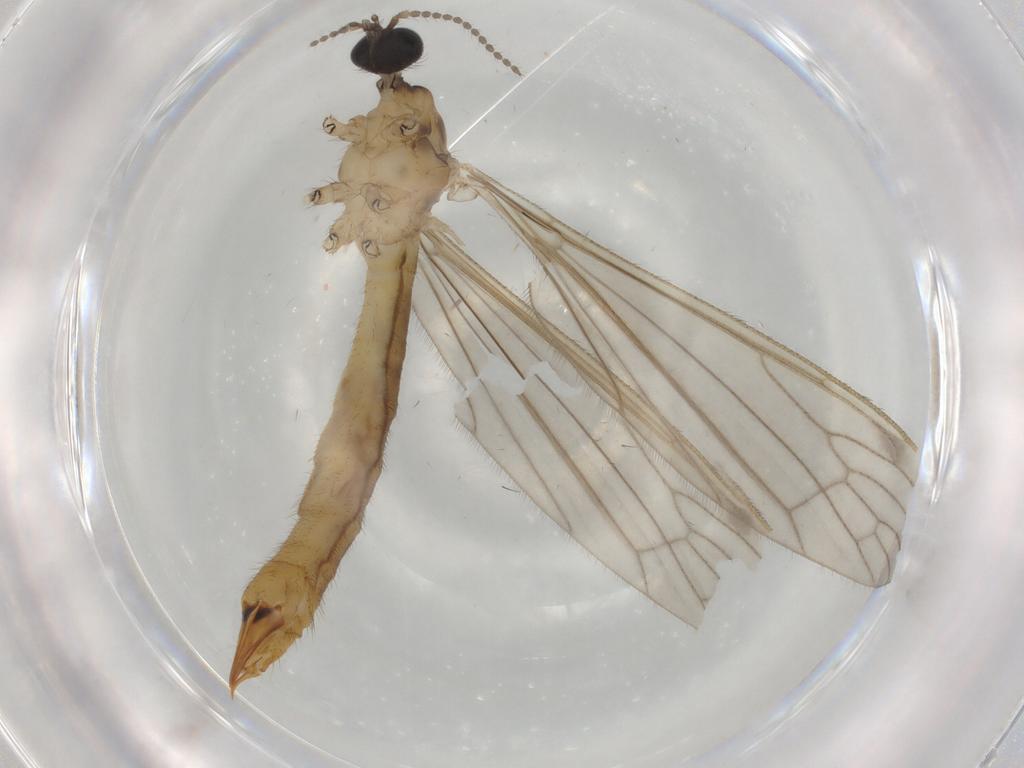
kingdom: Animalia
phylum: Arthropoda
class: Insecta
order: Diptera
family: Limoniidae
